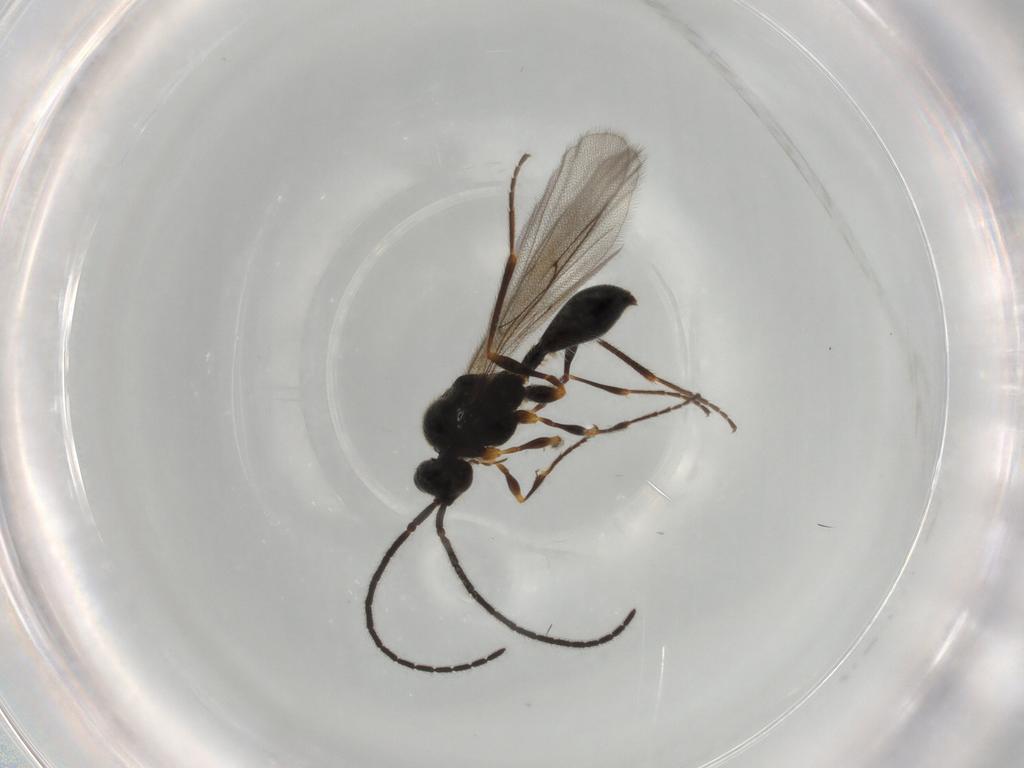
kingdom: Animalia
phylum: Arthropoda
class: Insecta
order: Hymenoptera
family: Diapriidae
